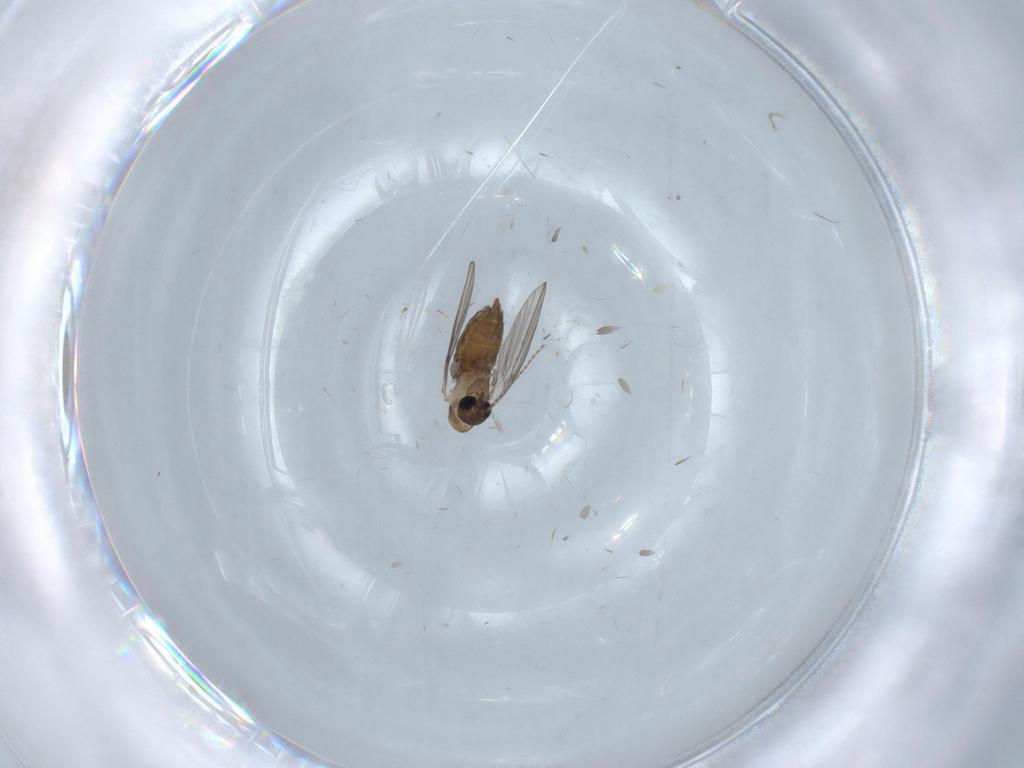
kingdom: Animalia
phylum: Arthropoda
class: Insecta
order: Diptera
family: Psychodidae
